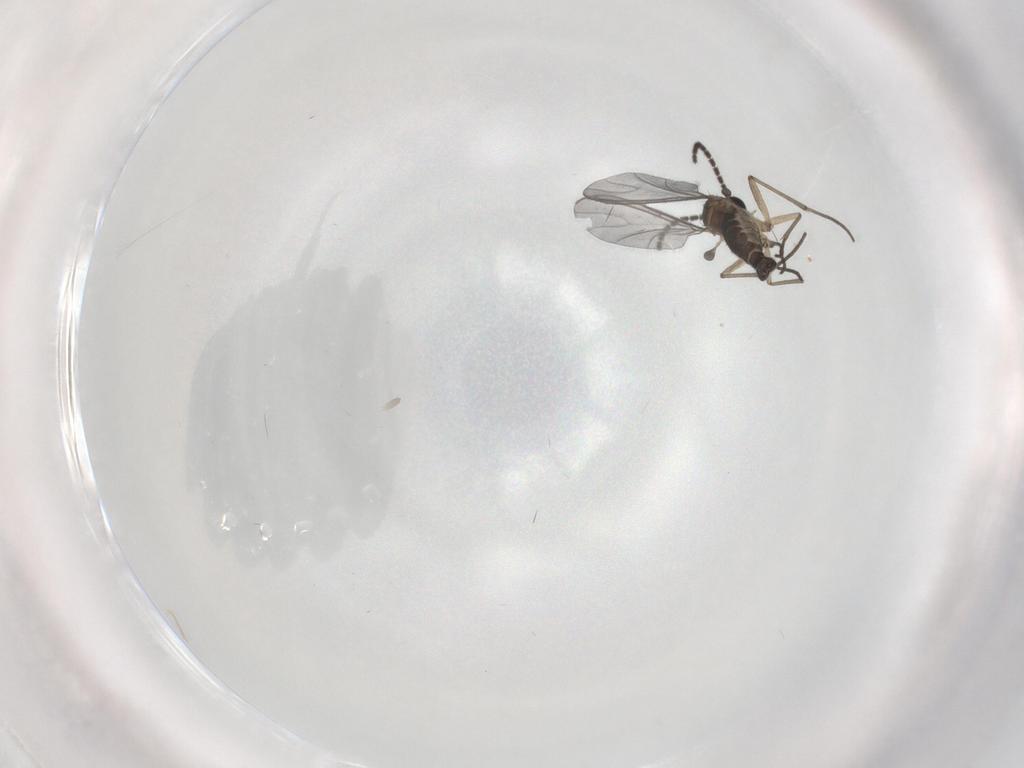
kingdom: Animalia
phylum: Arthropoda
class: Insecta
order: Diptera
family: Sciaridae
